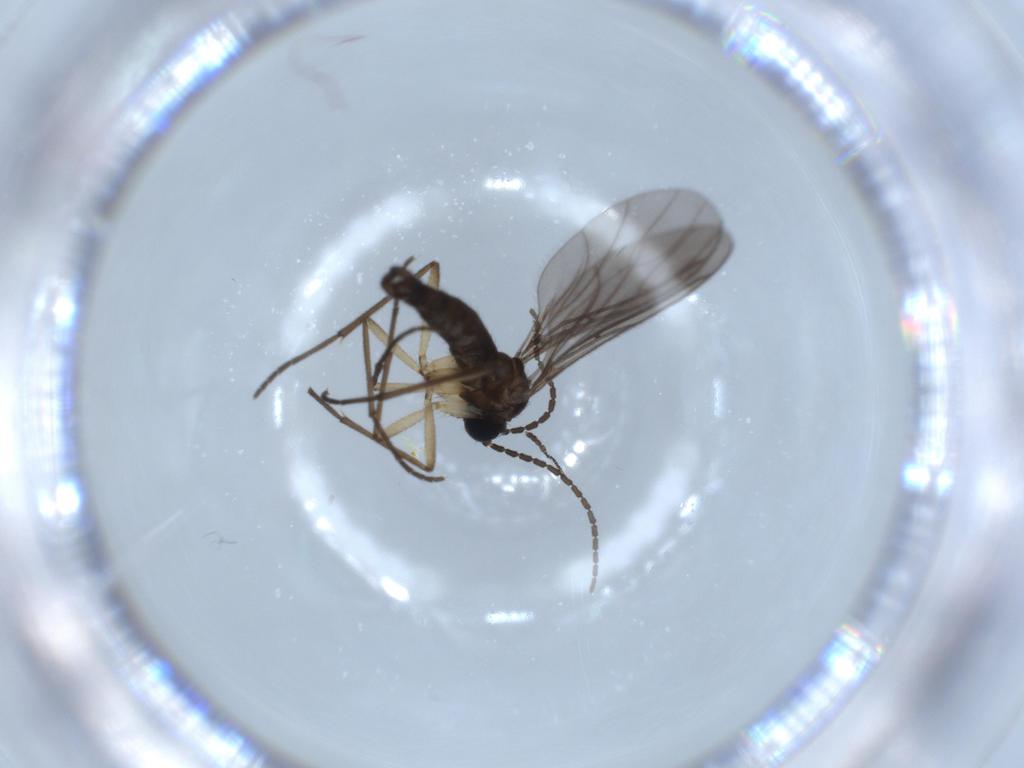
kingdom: Animalia
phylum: Arthropoda
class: Insecta
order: Diptera
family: Sciaridae
